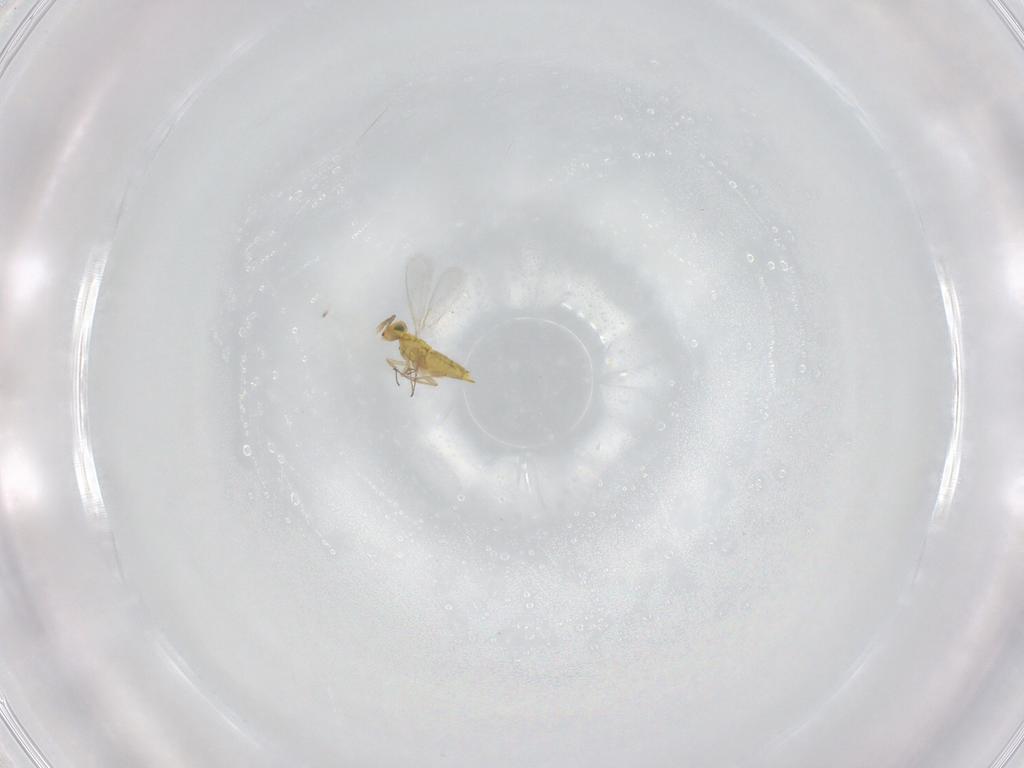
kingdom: Animalia
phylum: Arthropoda
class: Insecta
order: Hymenoptera
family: Aphelinidae
